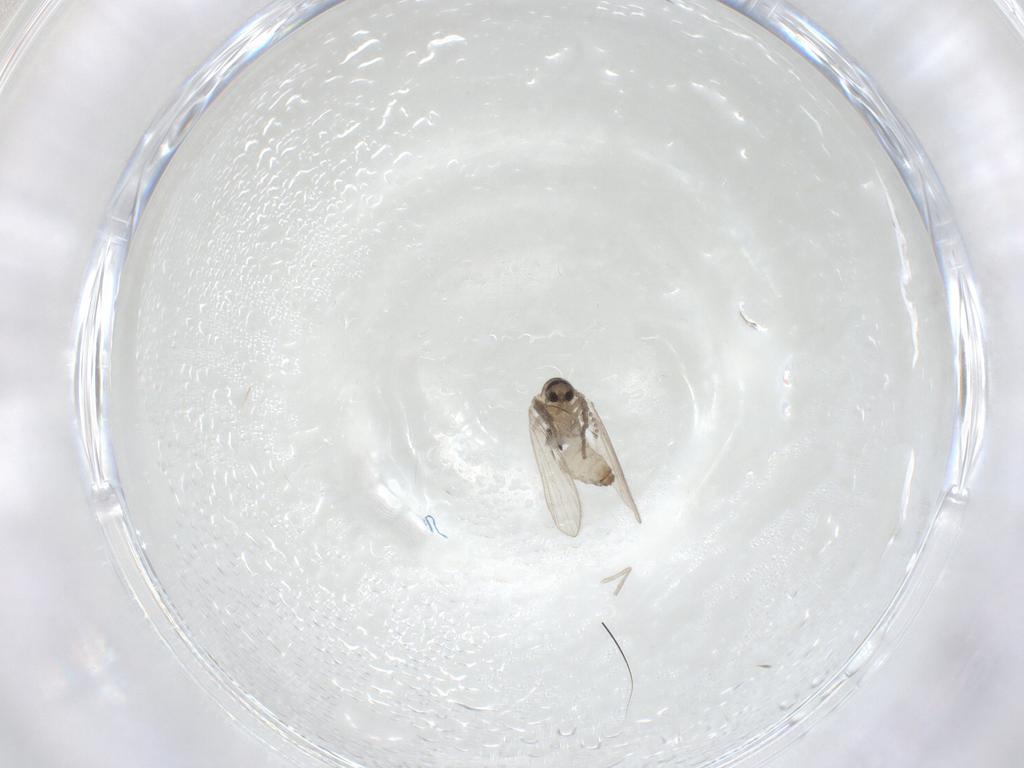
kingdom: Animalia
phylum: Arthropoda
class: Insecta
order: Diptera
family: Psychodidae
